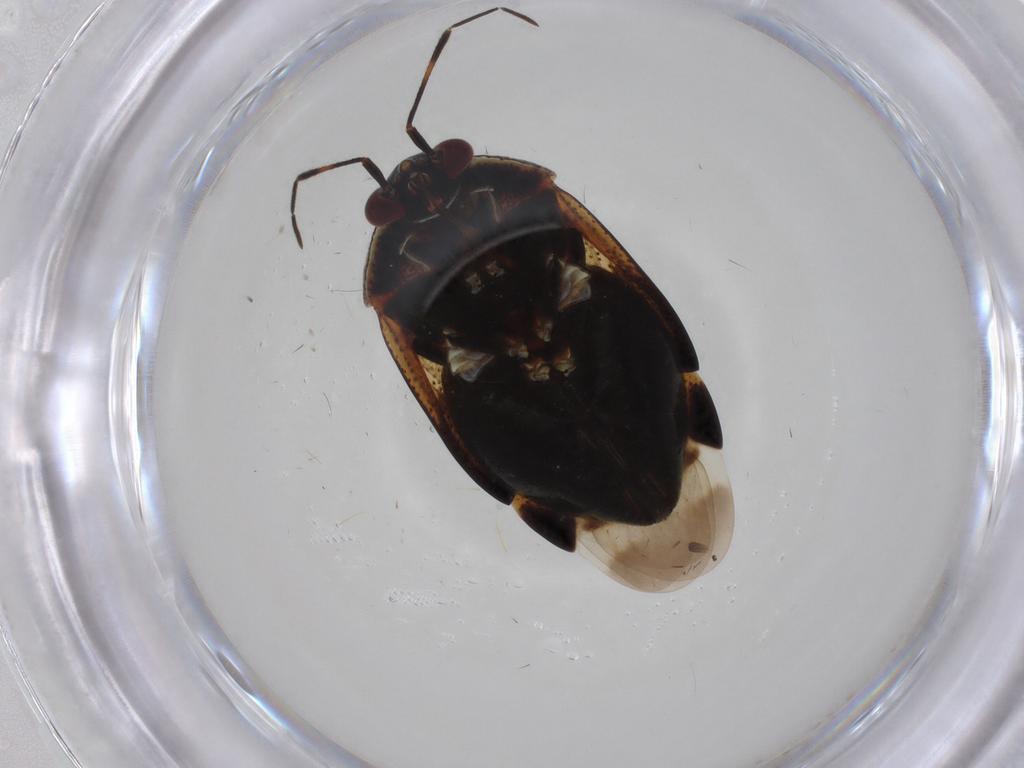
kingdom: Animalia
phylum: Arthropoda
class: Insecta
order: Hemiptera
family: Miridae
